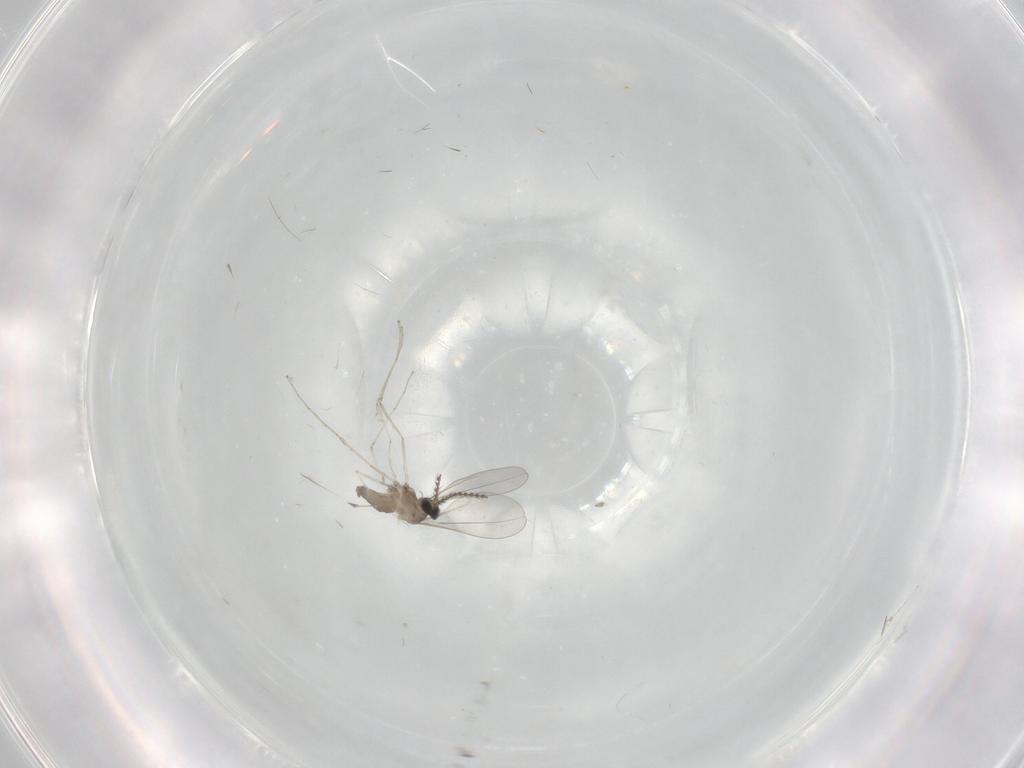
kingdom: Animalia
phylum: Arthropoda
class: Insecta
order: Diptera
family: Cecidomyiidae
